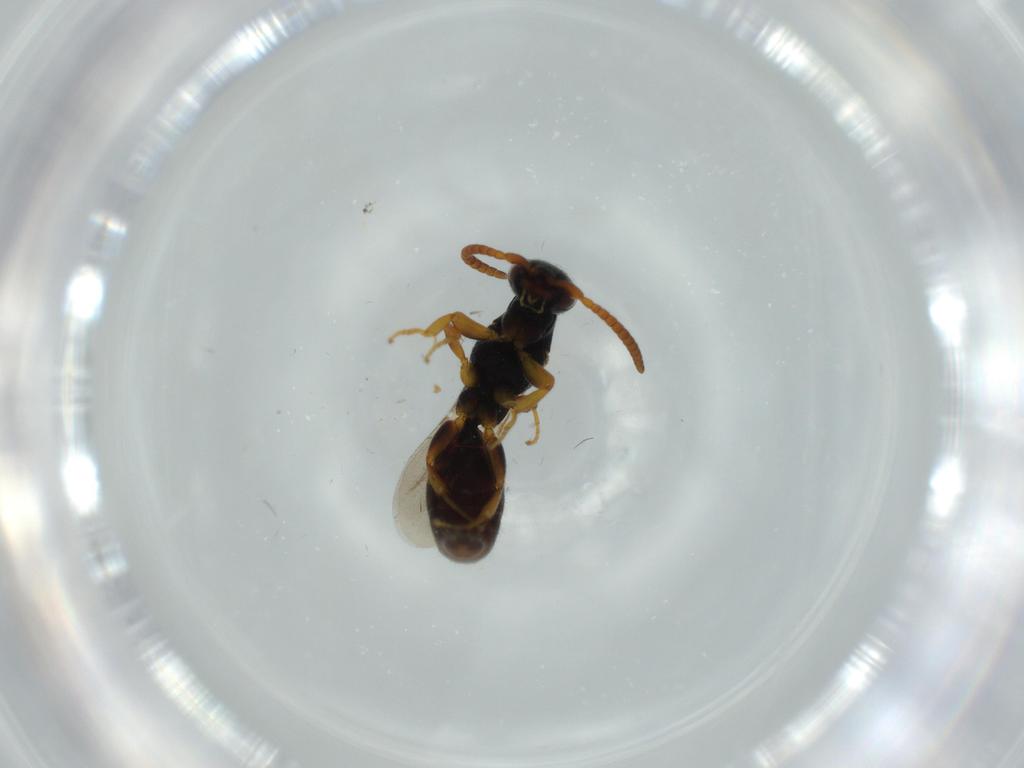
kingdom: Animalia
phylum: Arthropoda
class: Insecta
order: Hymenoptera
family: Bethylidae
